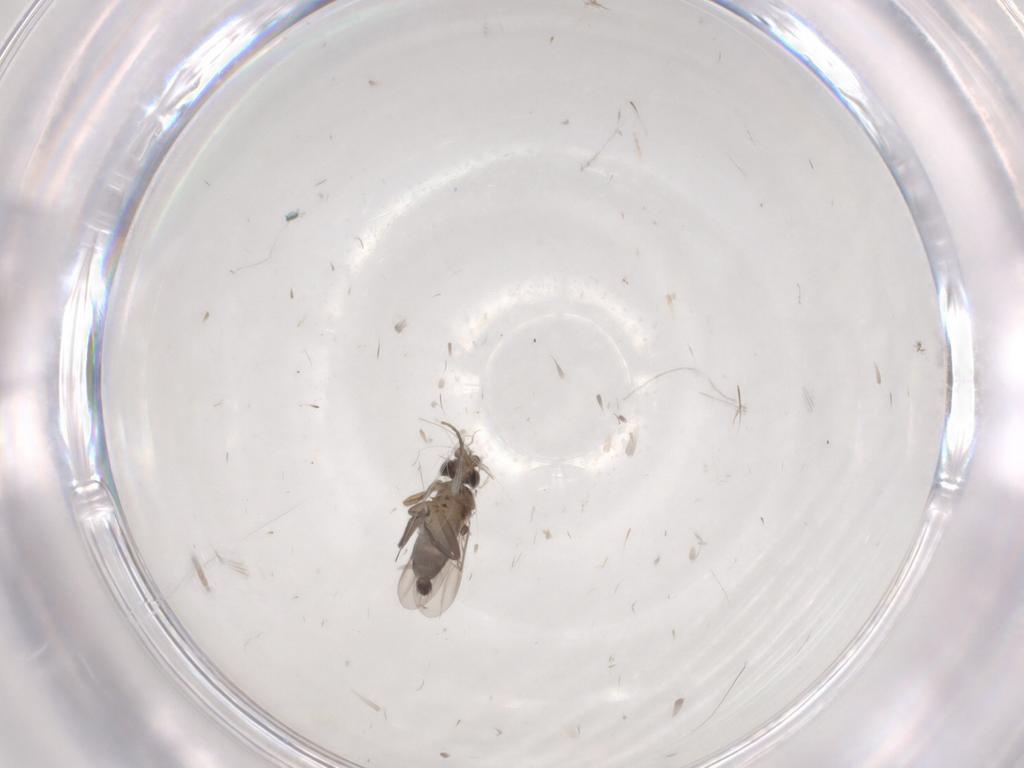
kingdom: Animalia
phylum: Arthropoda
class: Insecta
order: Diptera
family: Phoridae
